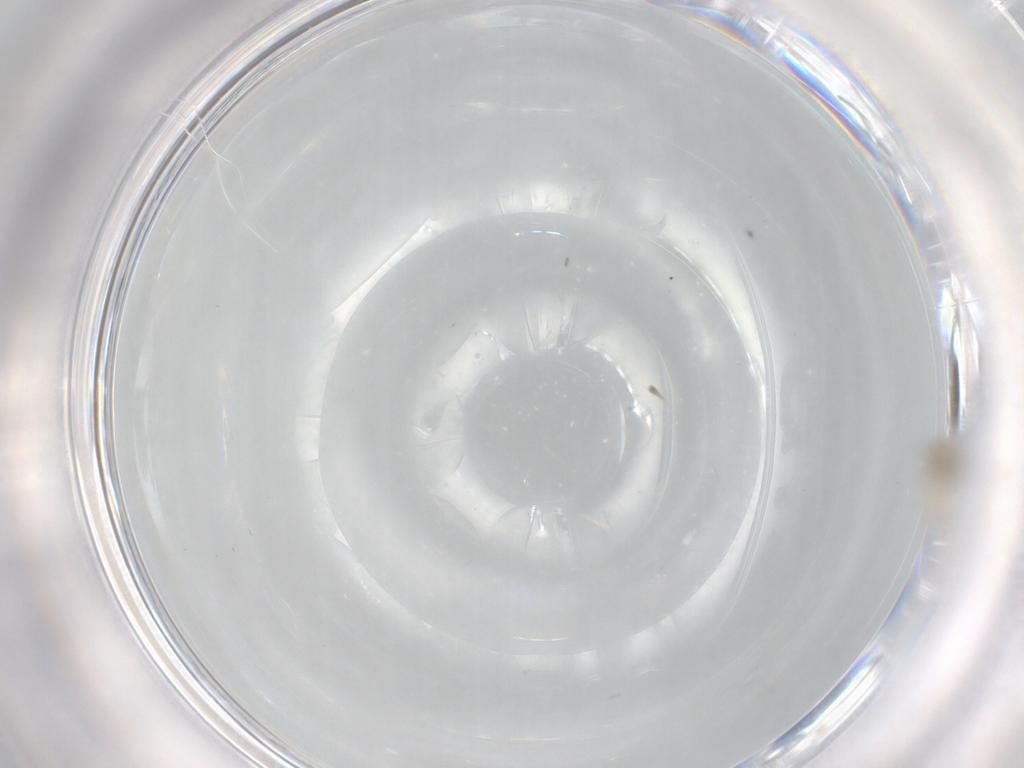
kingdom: Animalia
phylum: Arthropoda
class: Insecta
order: Diptera
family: Cecidomyiidae
